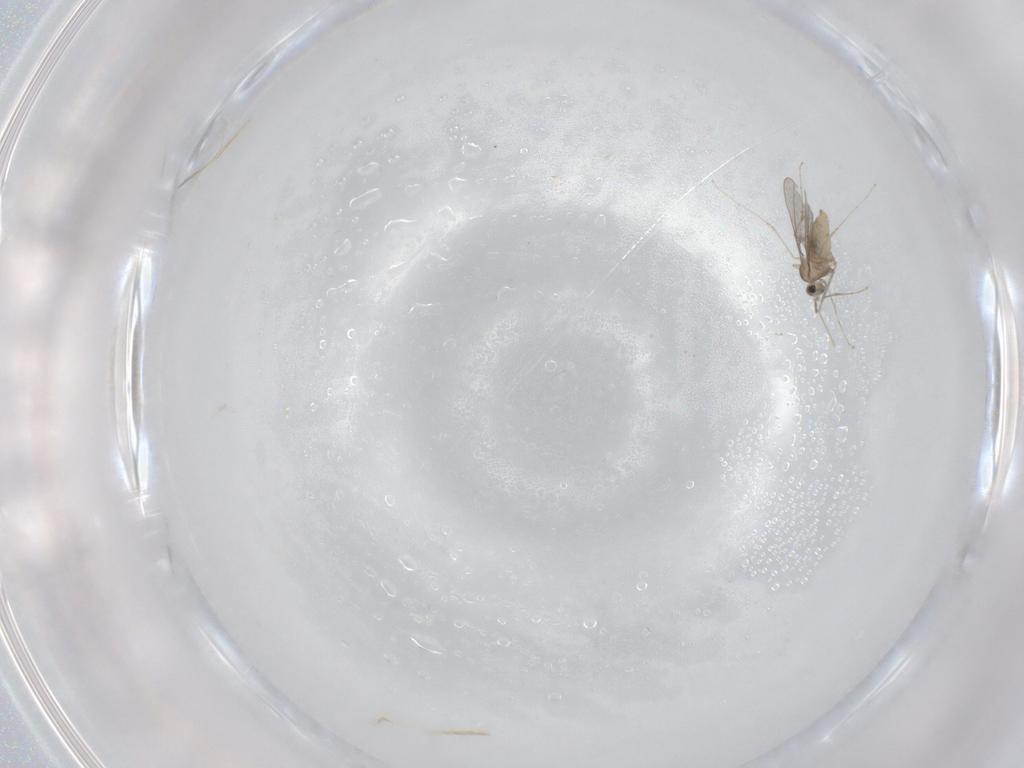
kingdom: Animalia
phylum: Arthropoda
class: Insecta
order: Diptera
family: Cecidomyiidae
